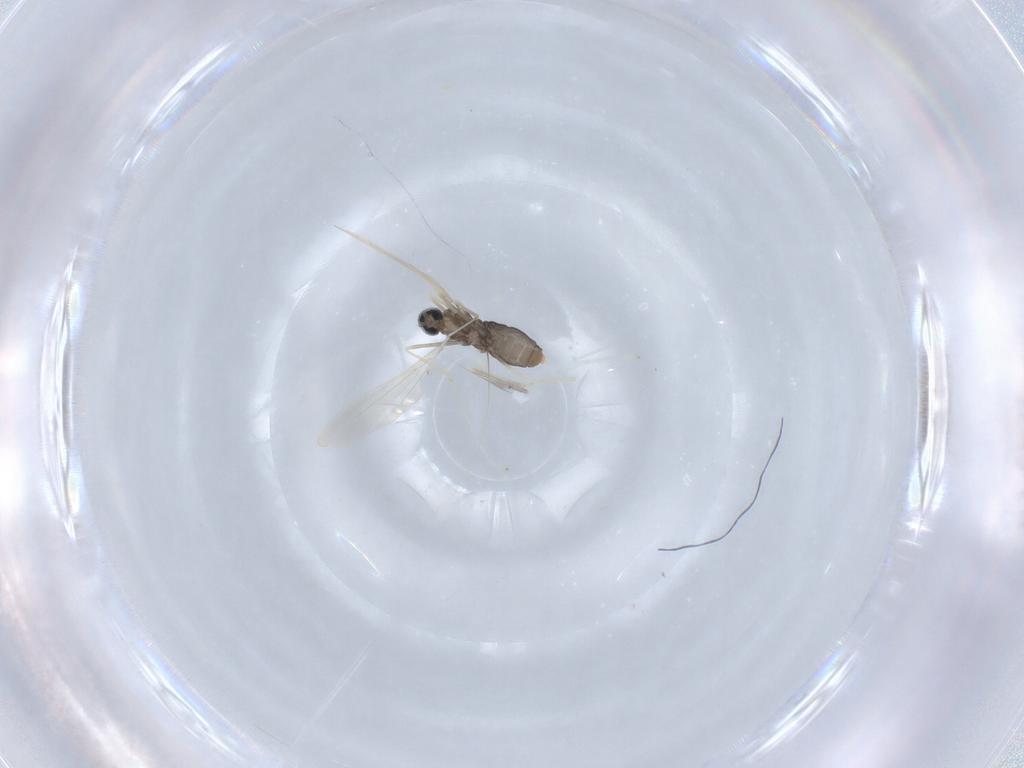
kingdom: Animalia
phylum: Arthropoda
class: Insecta
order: Diptera
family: Cecidomyiidae
